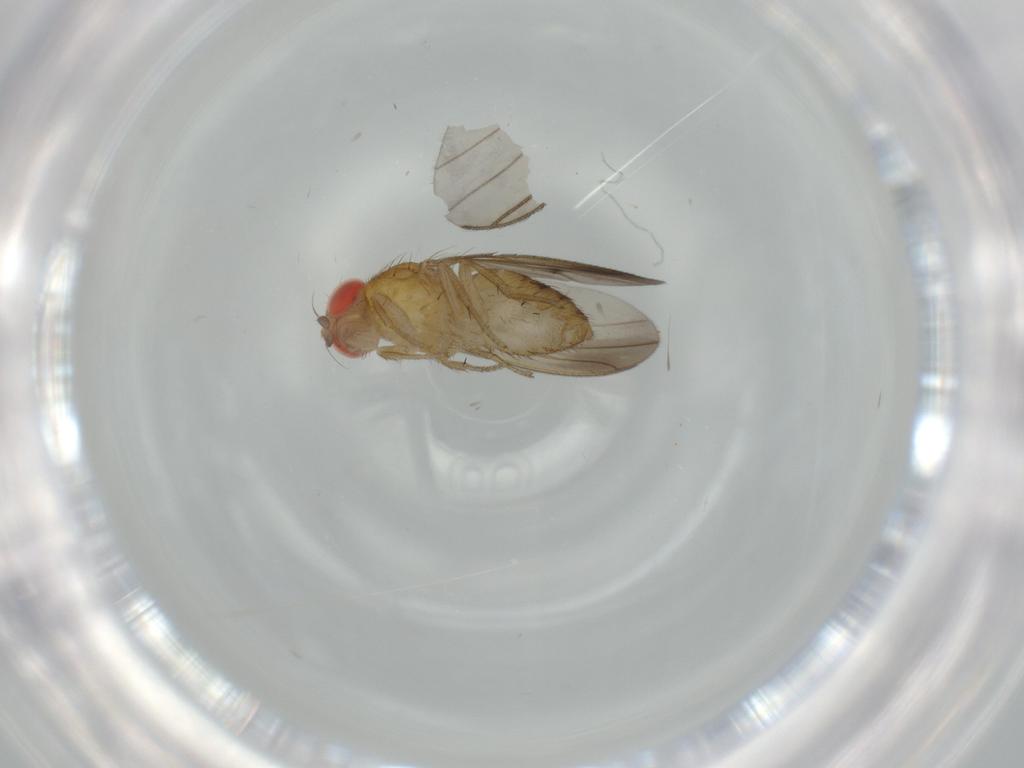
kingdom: Animalia
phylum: Arthropoda
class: Insecta
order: Diptera
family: Drosophilidae
